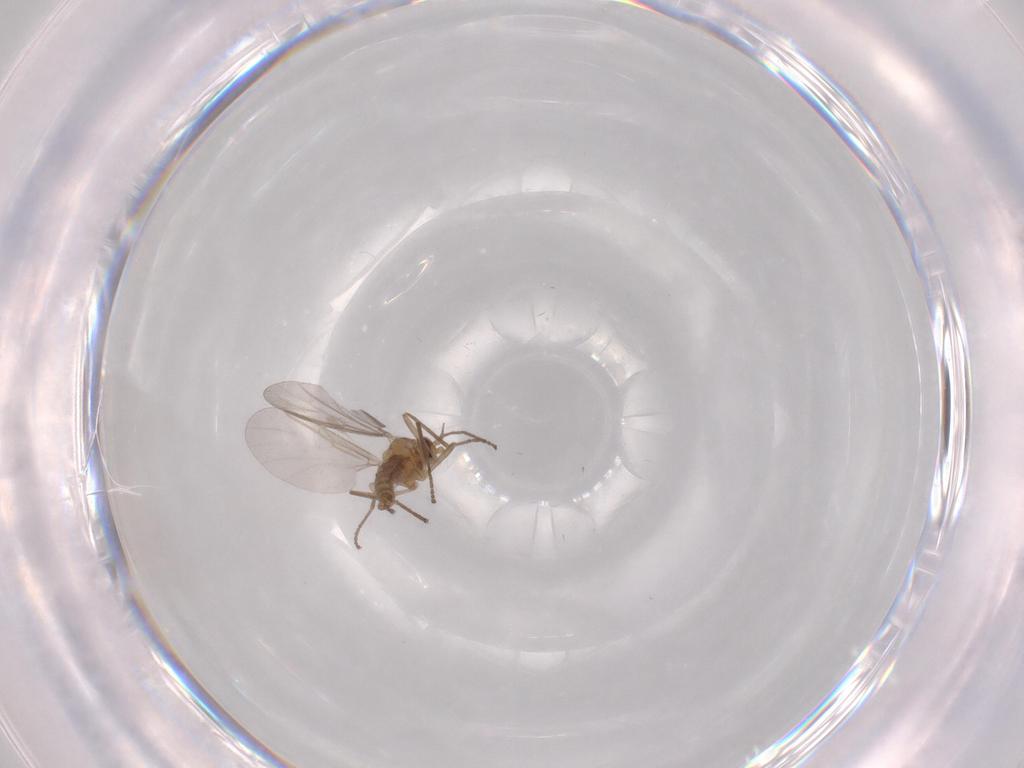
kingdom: Animalia
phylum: Arthropoda
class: Insecta
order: Diptera
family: Cecidomyiidae
